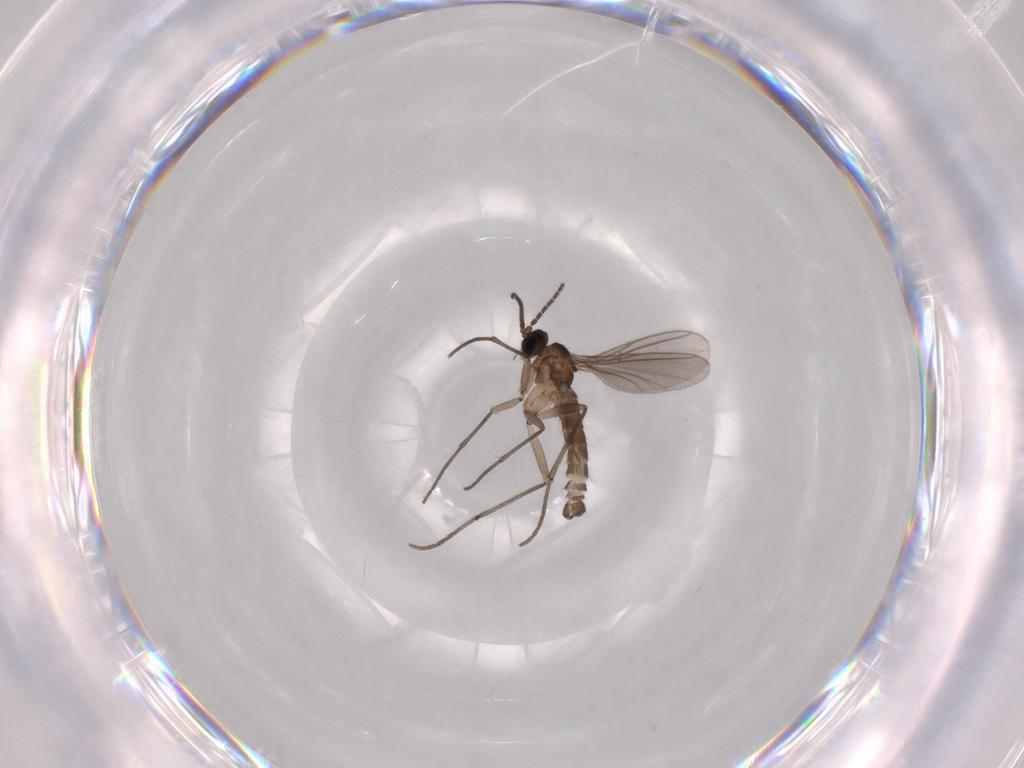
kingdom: Animalia
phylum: Arthropoda
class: Insecta
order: Diptera
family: Sciaridae
